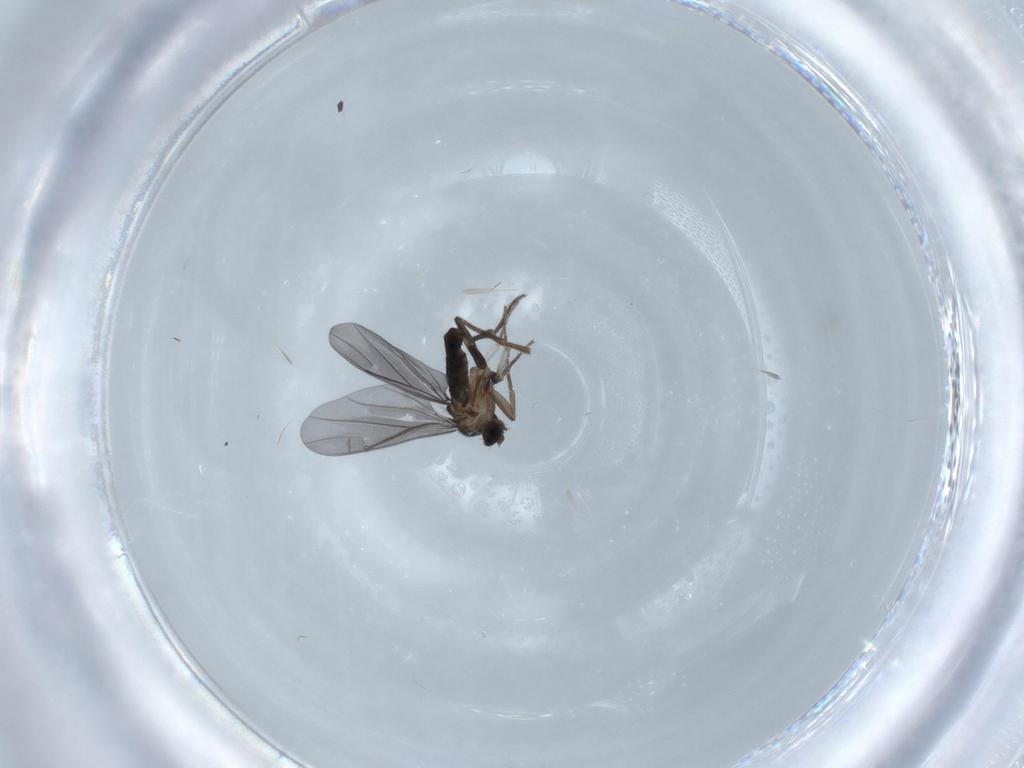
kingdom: Animalia
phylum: Arthropoda
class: Insecta
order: Diptera
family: Phoridae
